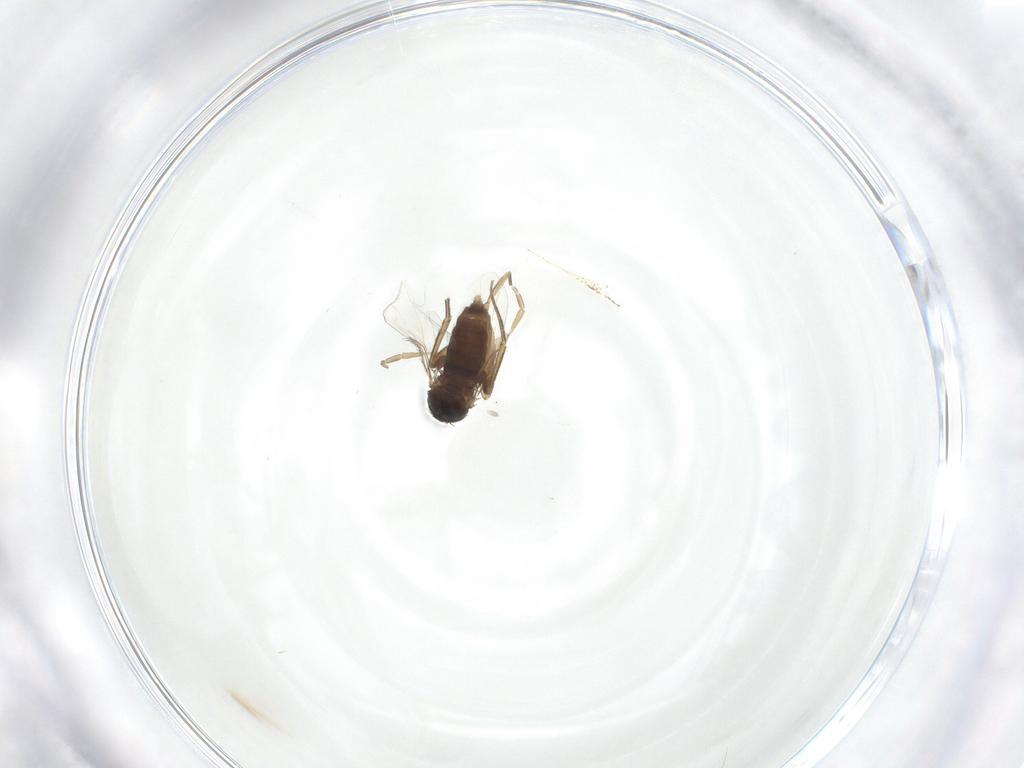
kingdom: Animalia
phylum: Arthropoda
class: Insecta
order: Diptera
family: Phoridae
